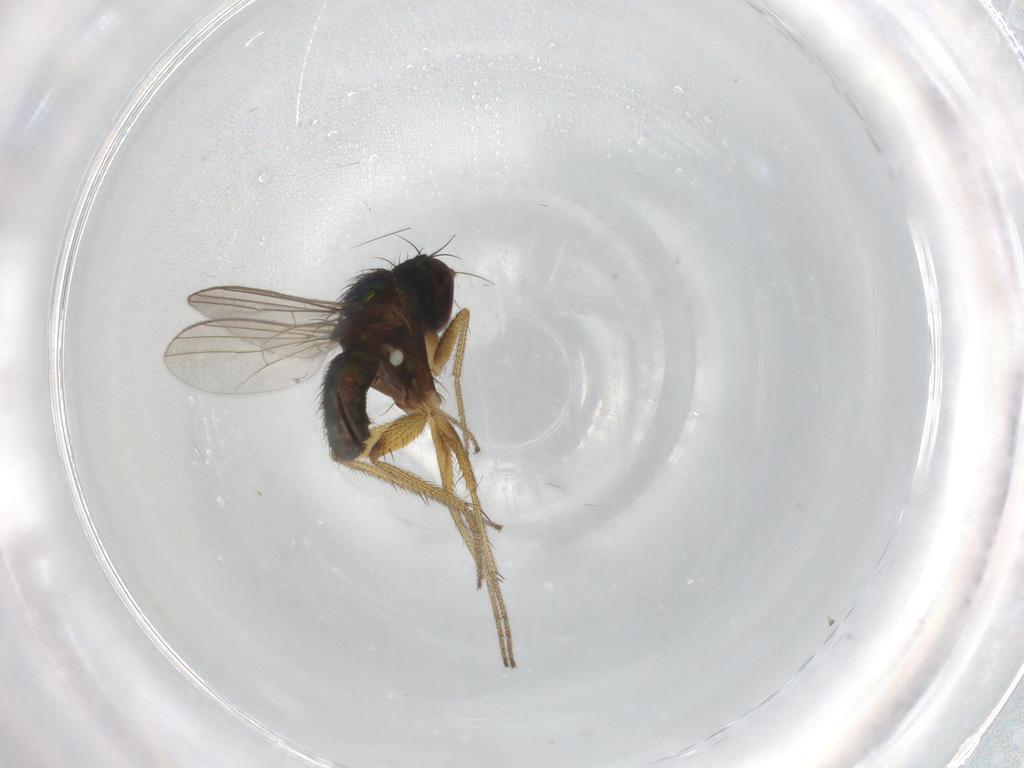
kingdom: Animalia
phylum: Arthropoda
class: Insecta
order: Diptera
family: Dolichopodidae
